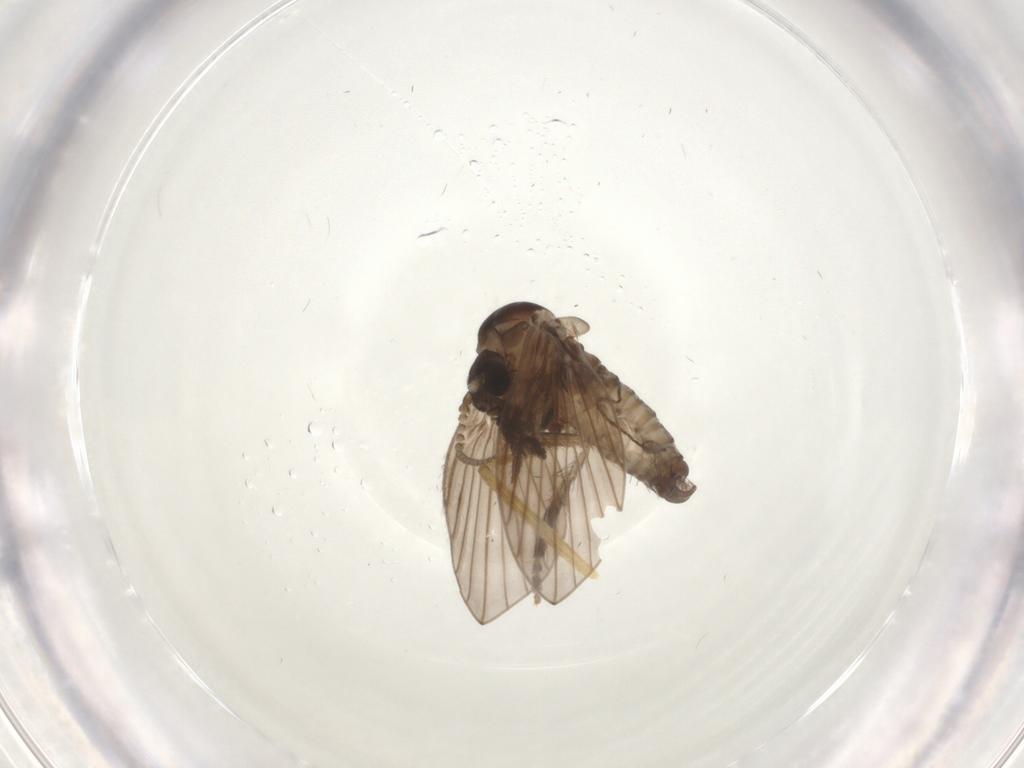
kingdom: Animalia
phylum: Arthropoda
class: Insecta
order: Diptera
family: Psychodidae
